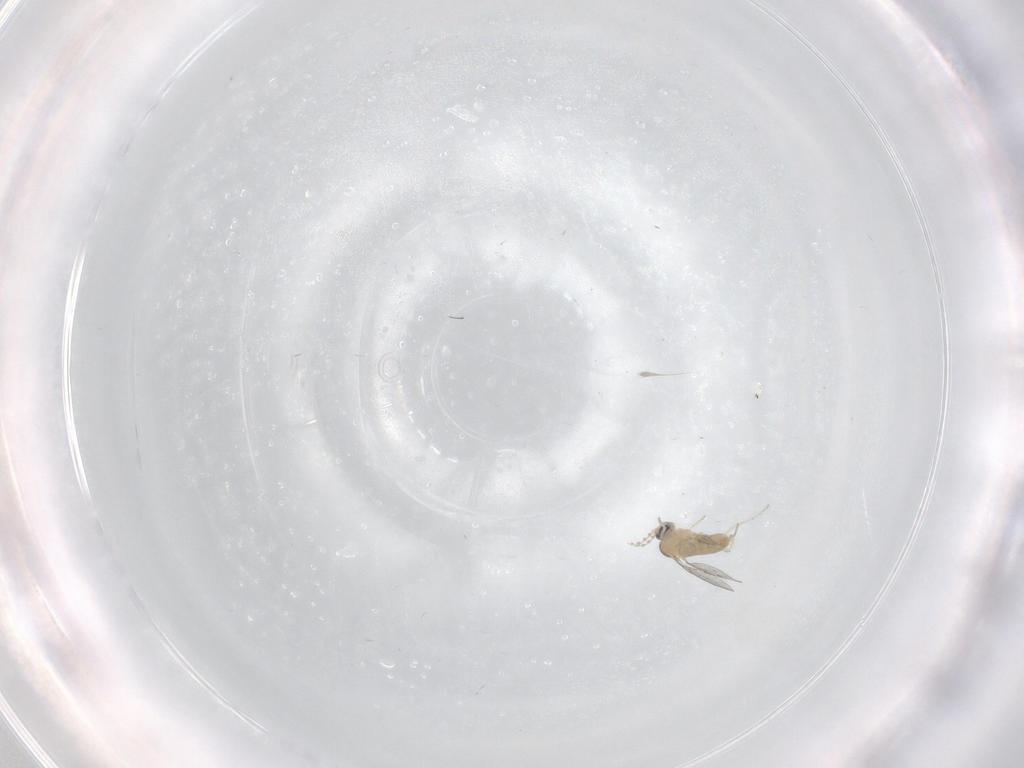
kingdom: Animalia
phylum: Arthropoda
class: Insecta
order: Diptera
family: Cecidomyiidae
